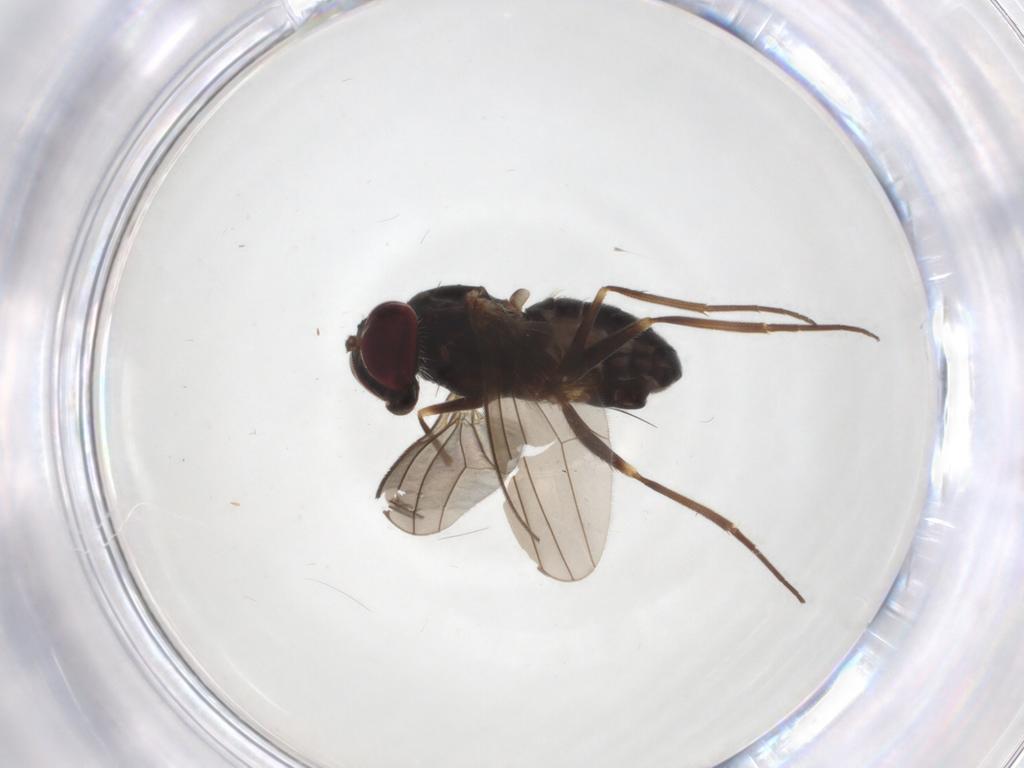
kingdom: Animalia
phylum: Arthropoda
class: Insecta
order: Diptera
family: Dolichopodidae
